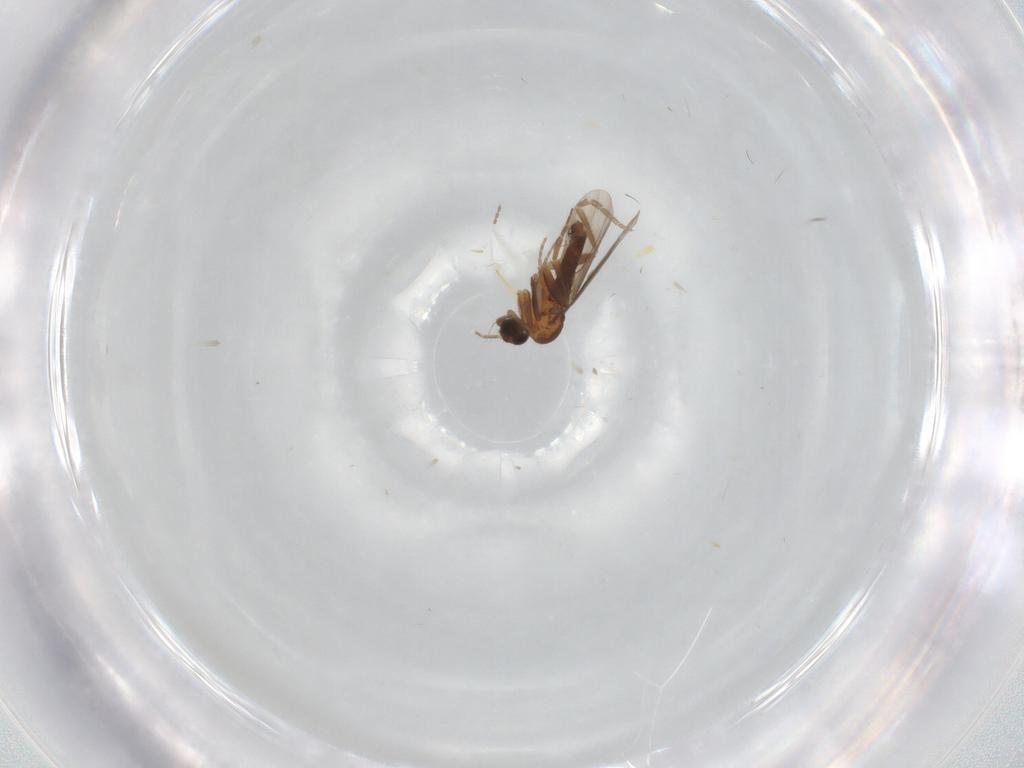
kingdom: Animalia
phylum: Arthropoda
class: Insecta
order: Diptera
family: Phoridae
